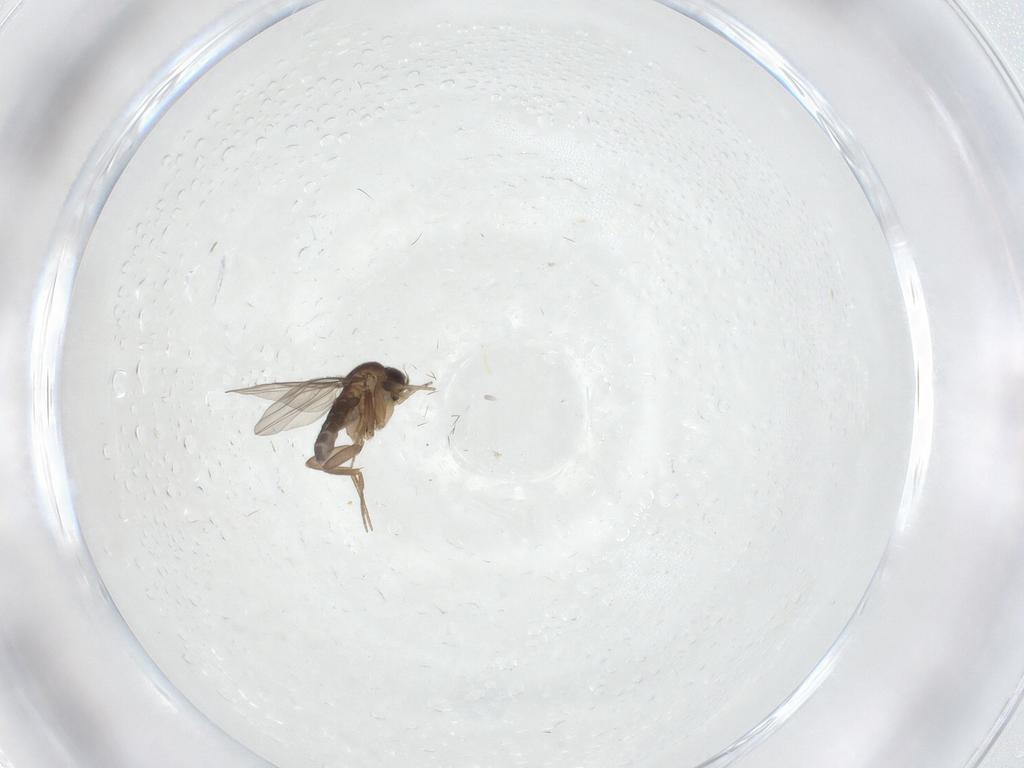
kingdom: Animalia
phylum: Arthropoda
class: Insecta
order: Diptera
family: Phoridae
